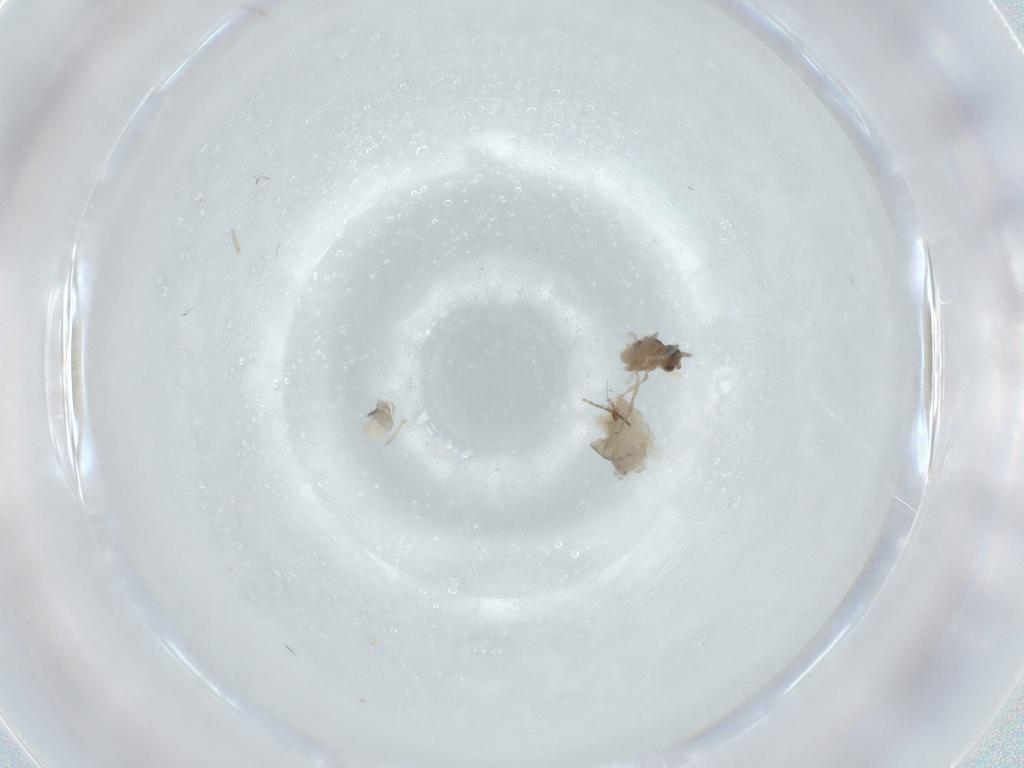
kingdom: Animalia
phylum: Arthropoda
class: Insecta
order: Diptera
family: Cecidomyiidae
